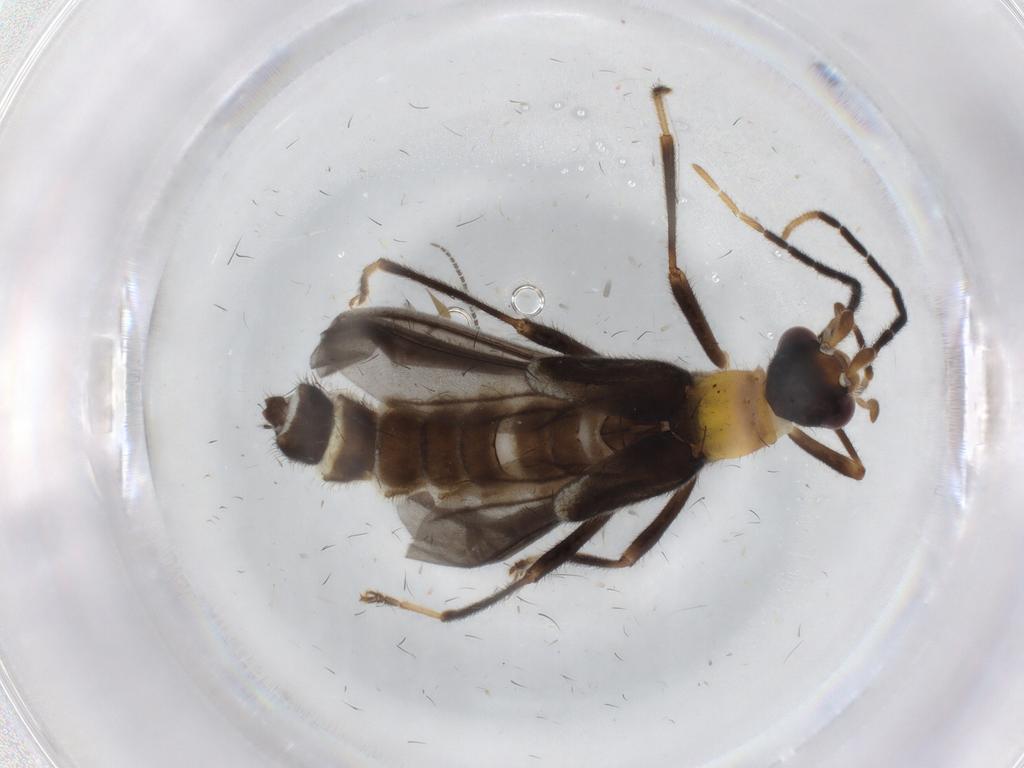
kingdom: Animalia
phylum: Arthropoda
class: Insecta
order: Coleoptera
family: Cantharidae
